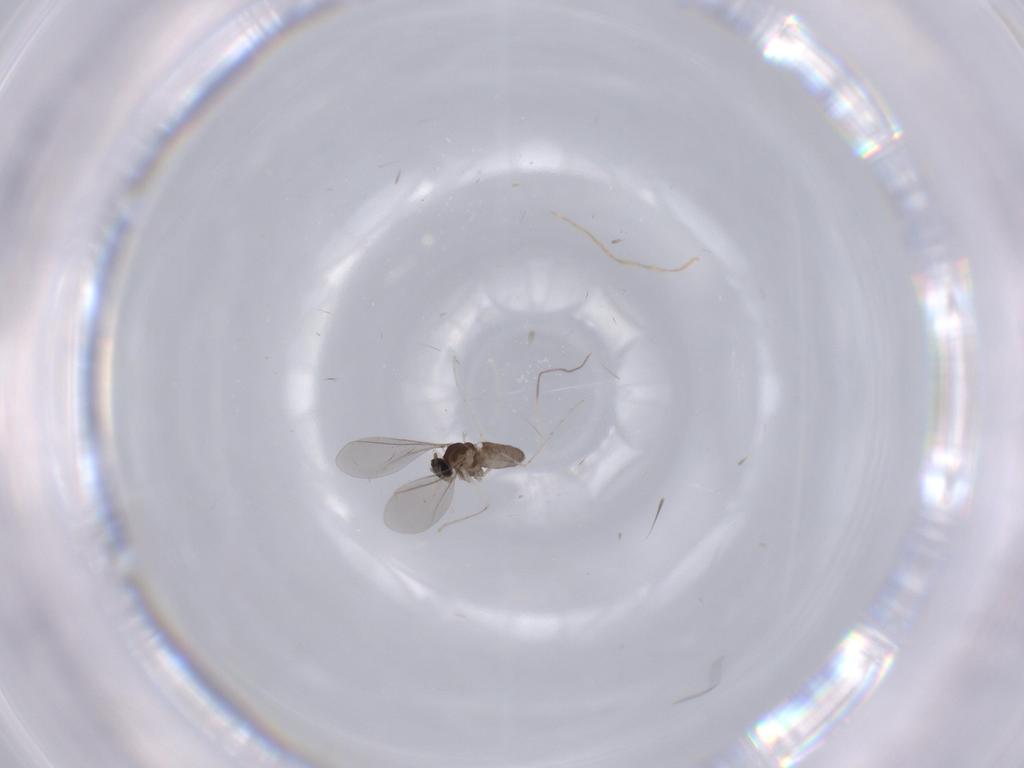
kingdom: Animalia
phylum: Arthropoda
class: Insecta
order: Diptera
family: Cecidomyiidae
